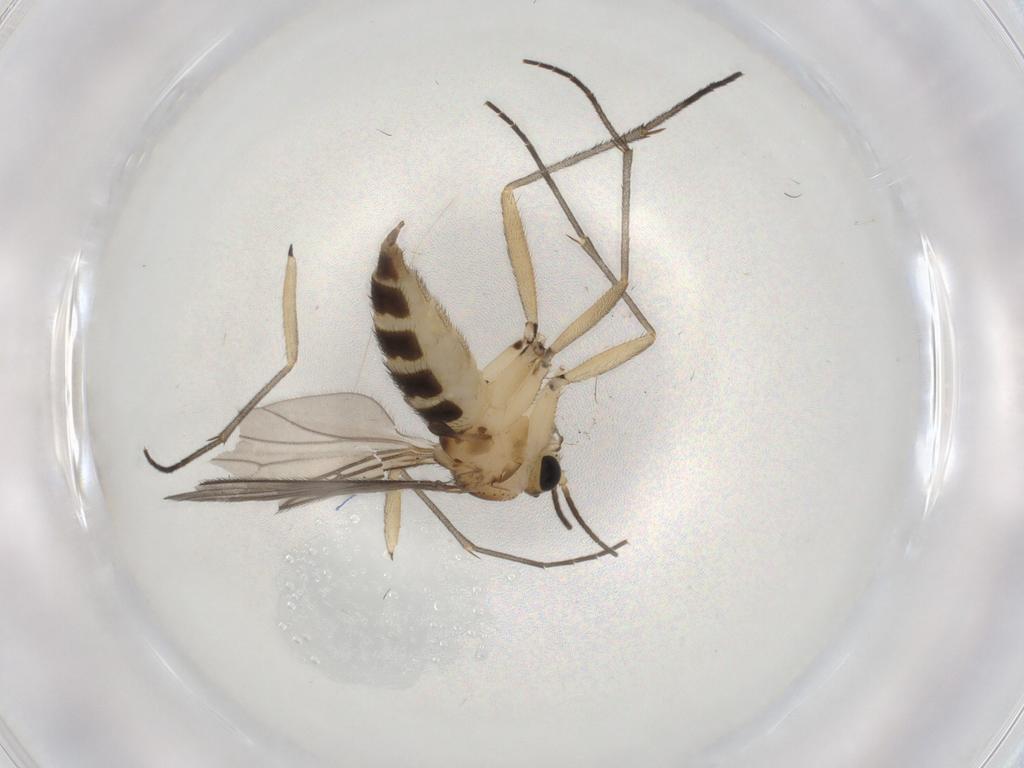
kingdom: Animalia
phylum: Arthropoda
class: Insecta
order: Diptera
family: Sciaridae
